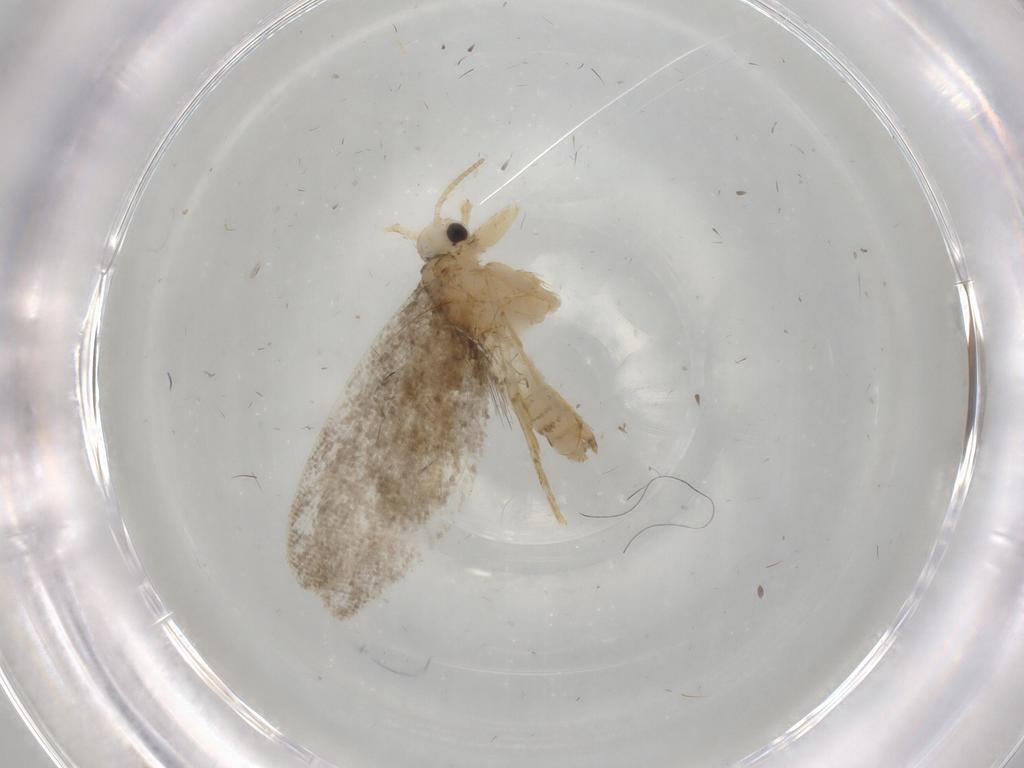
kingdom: Animalia
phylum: Arthropoda
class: Insecta
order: Lepidoptera
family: Psychidae
